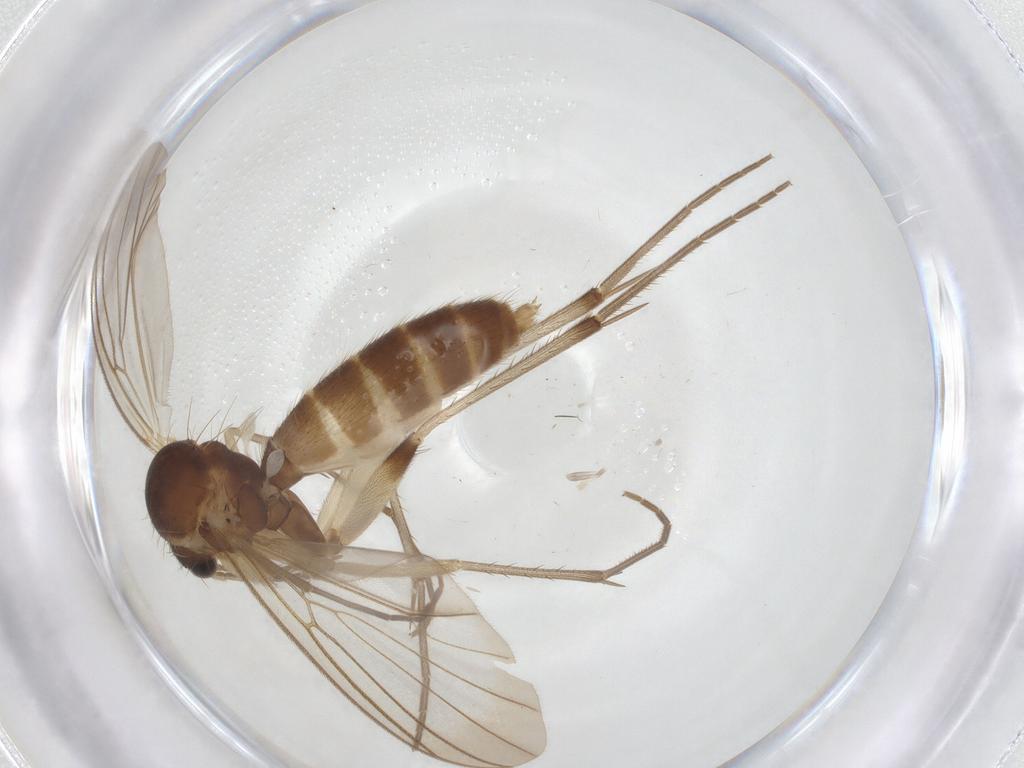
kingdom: Animalia
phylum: Arthropoda
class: Insecta
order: Diptera
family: Mycetophilidae
